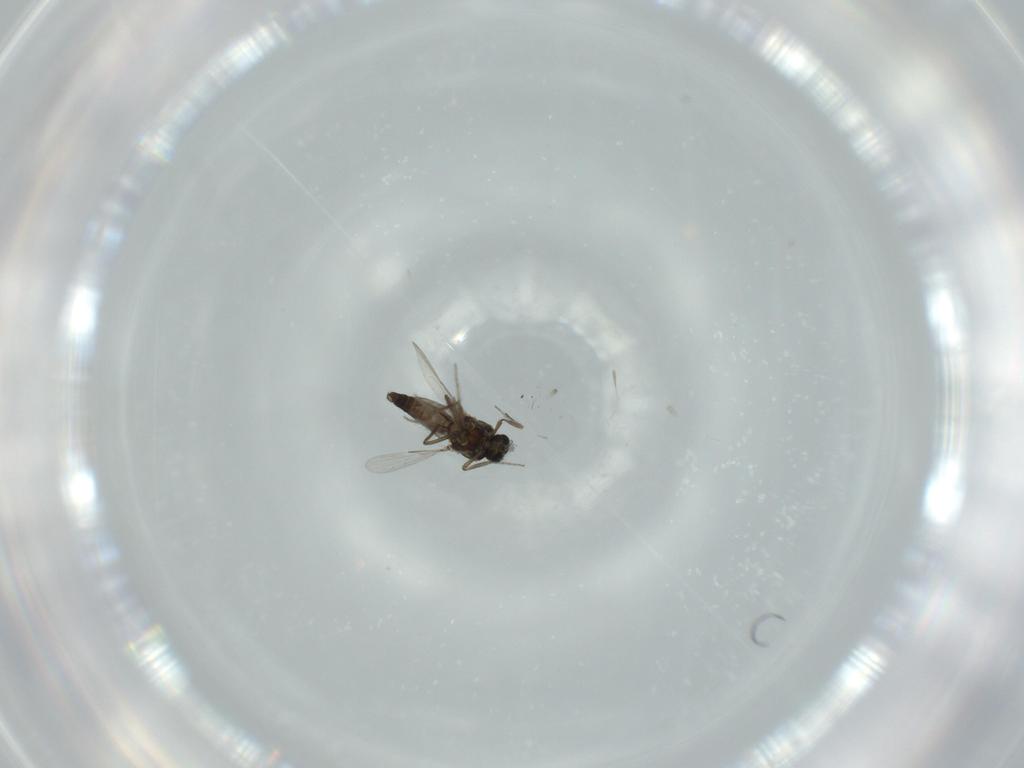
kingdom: Animalia
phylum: Arthropoda
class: Insecta
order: Diptera
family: Ceratopogonidae
